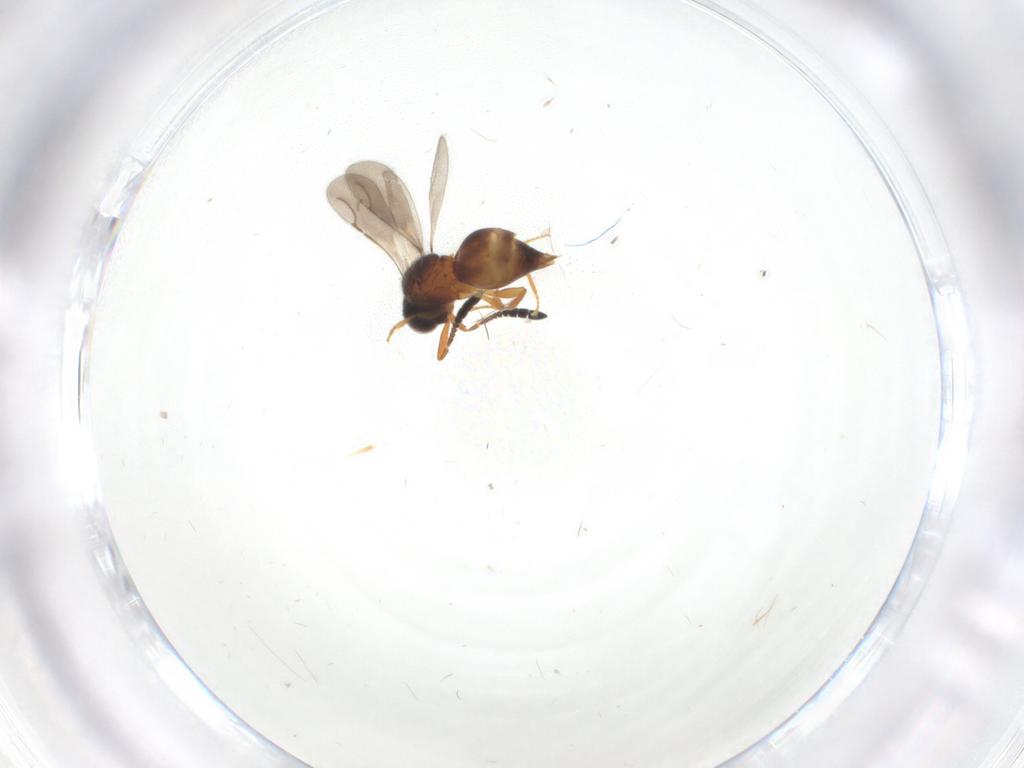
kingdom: Animalia
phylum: Arthropoda
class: Insecta
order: Hymenoptera
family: Ceraphronidae
